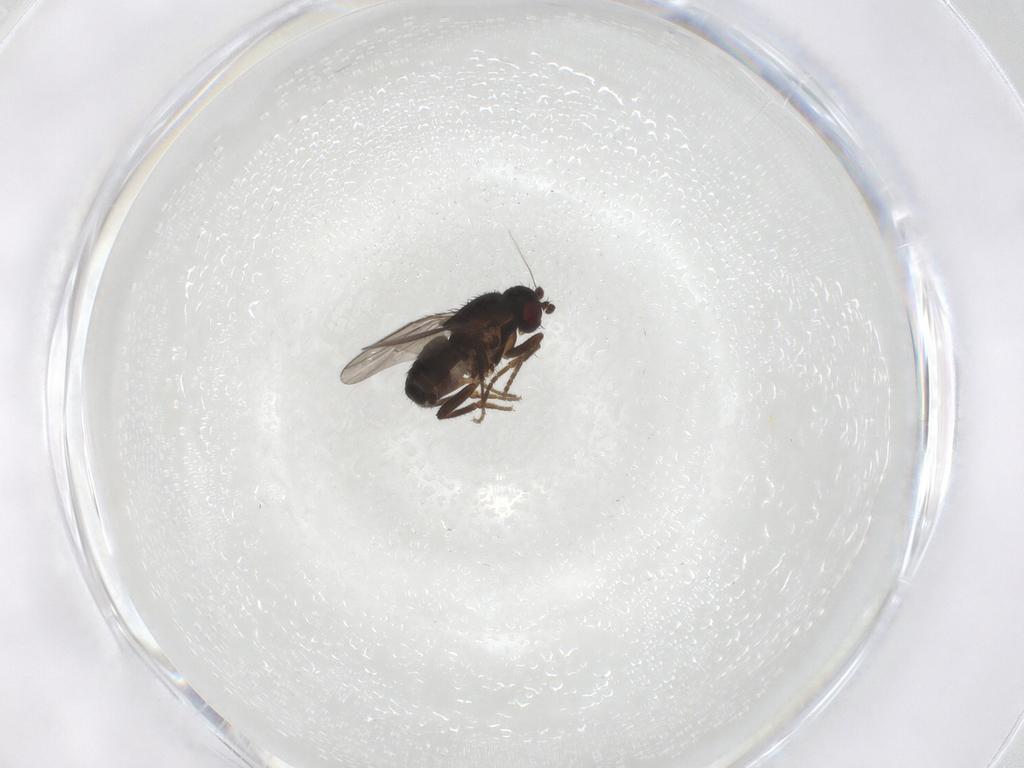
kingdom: Animalia
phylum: Arthropoda
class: Insecta
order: Diptera
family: Sphaeroceridae
